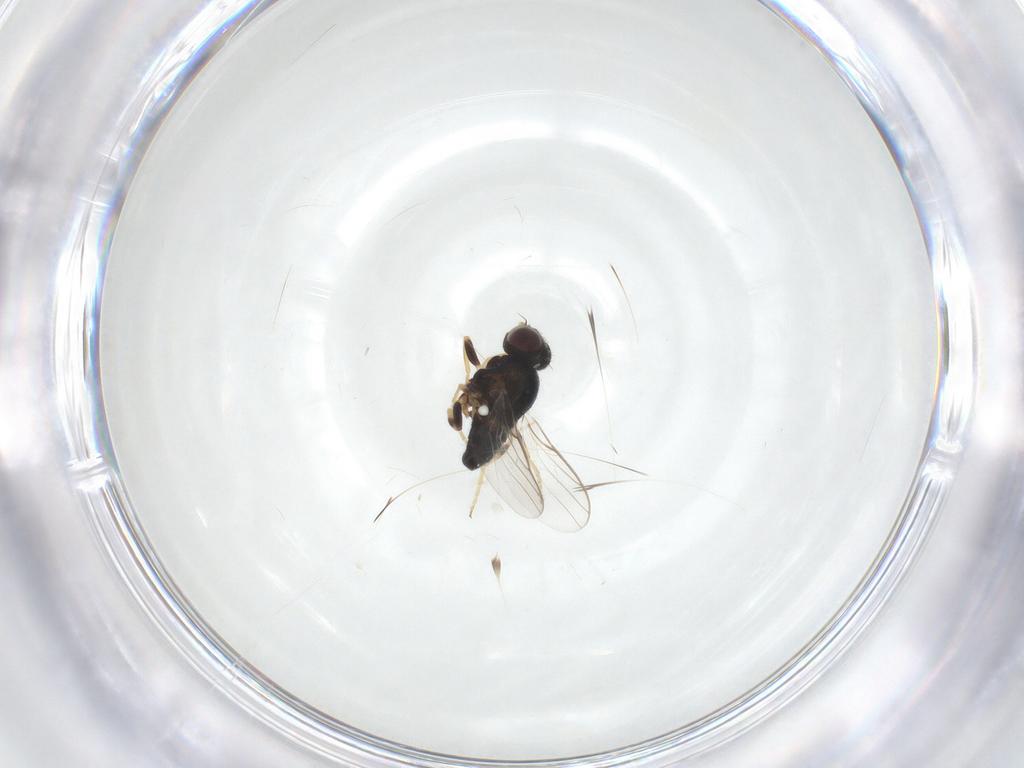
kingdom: Animalia
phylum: Arthropoda
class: Insecta
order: Diptera
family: Chloropidae
